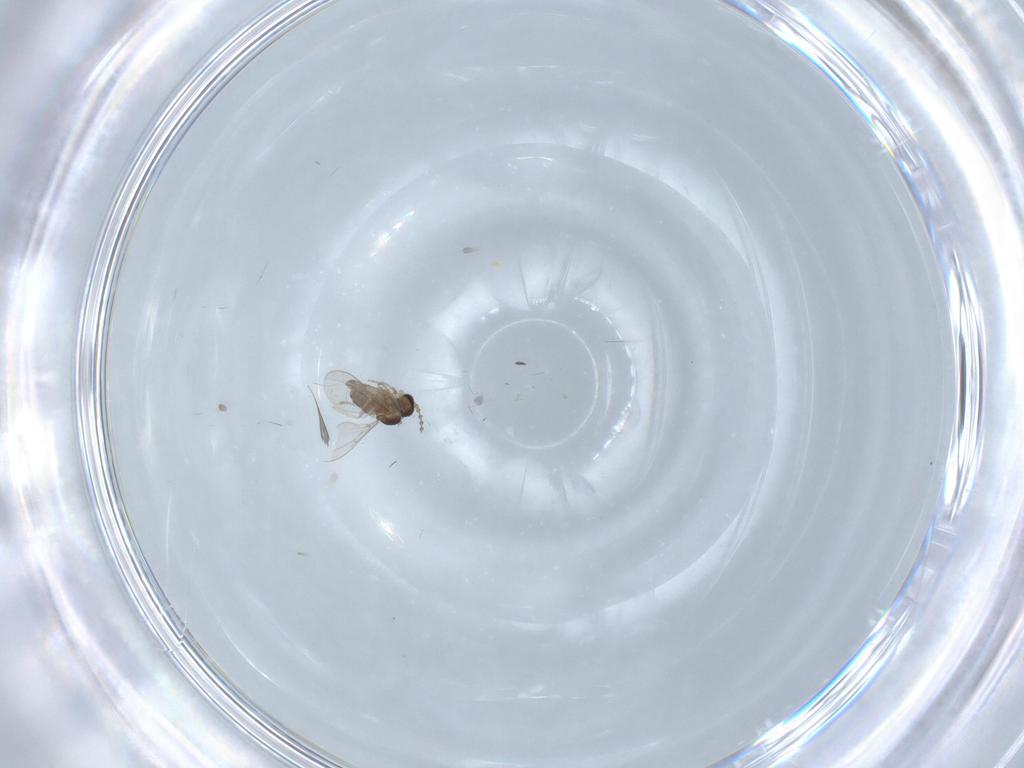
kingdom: Animalia
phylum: Arthropoda
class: Insecta
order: Diptera
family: Cecidomyiidae
